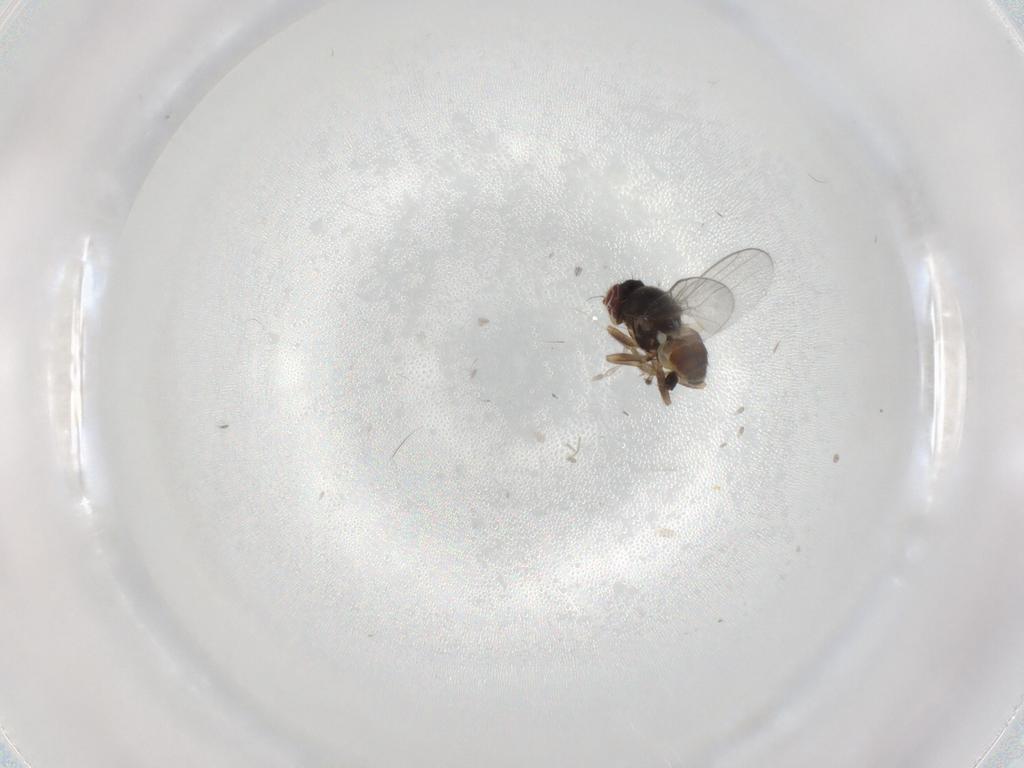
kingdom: Animalia
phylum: Arthropoda
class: Insecta
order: Diptera
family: Chloropidae
